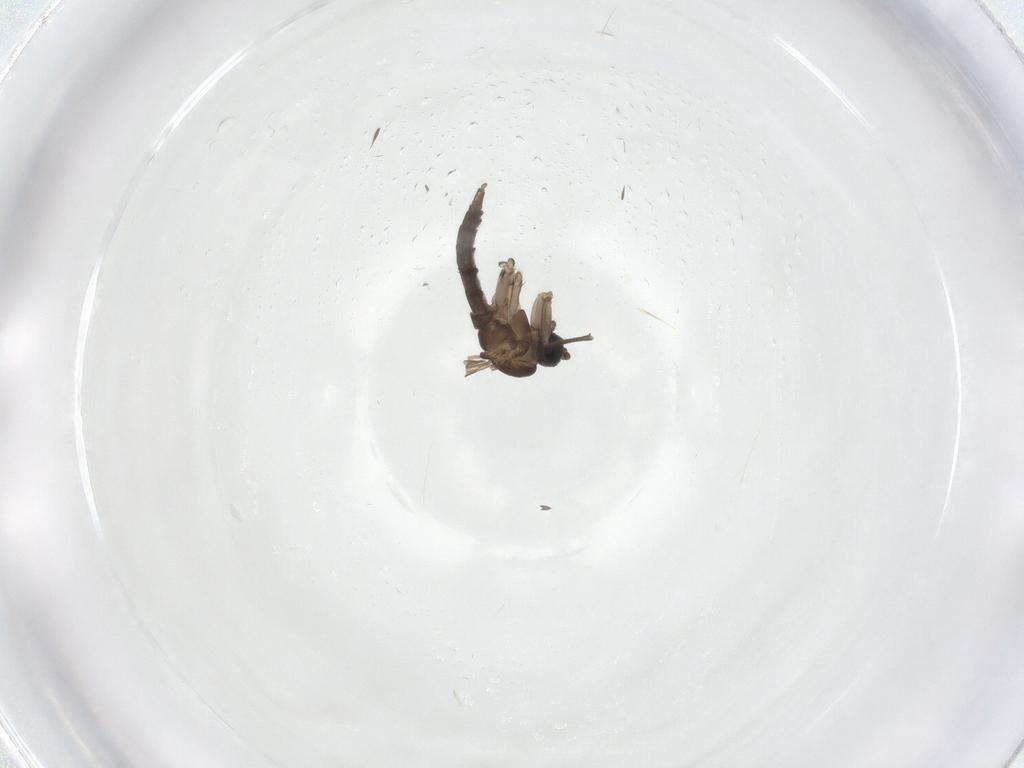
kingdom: Animalia
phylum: Arthropoda
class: Insecta
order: Diptera
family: Sciaridae
